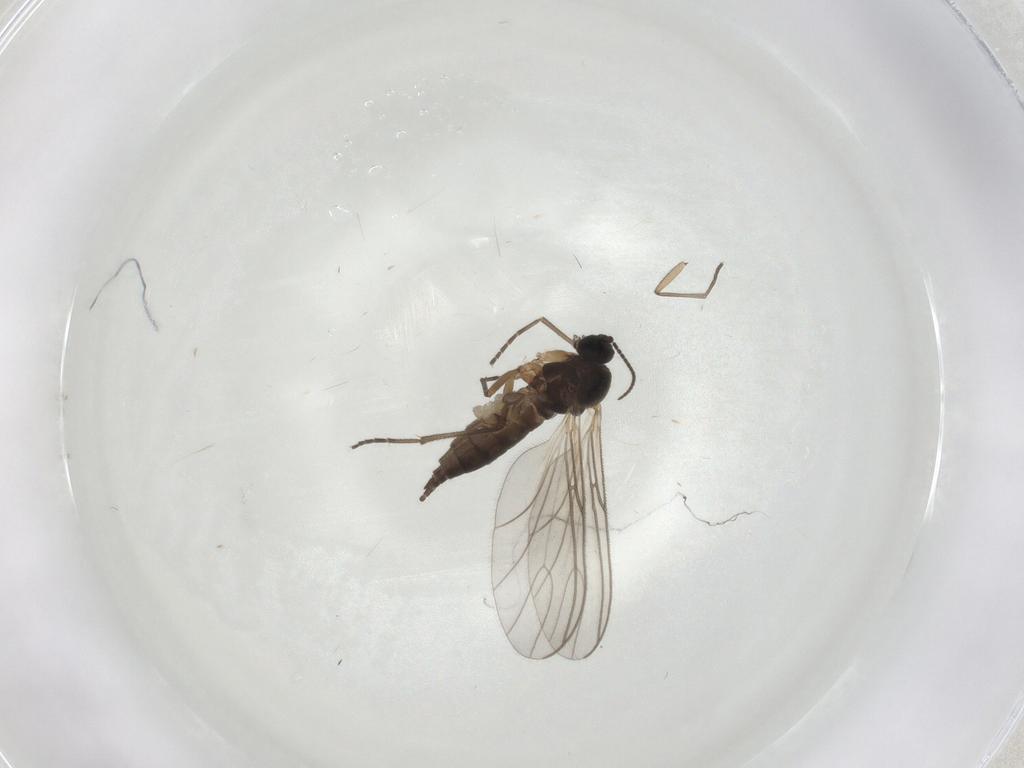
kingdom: Animalia
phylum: Arthropoda
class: Insecta
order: Diptera
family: Sciaridae
